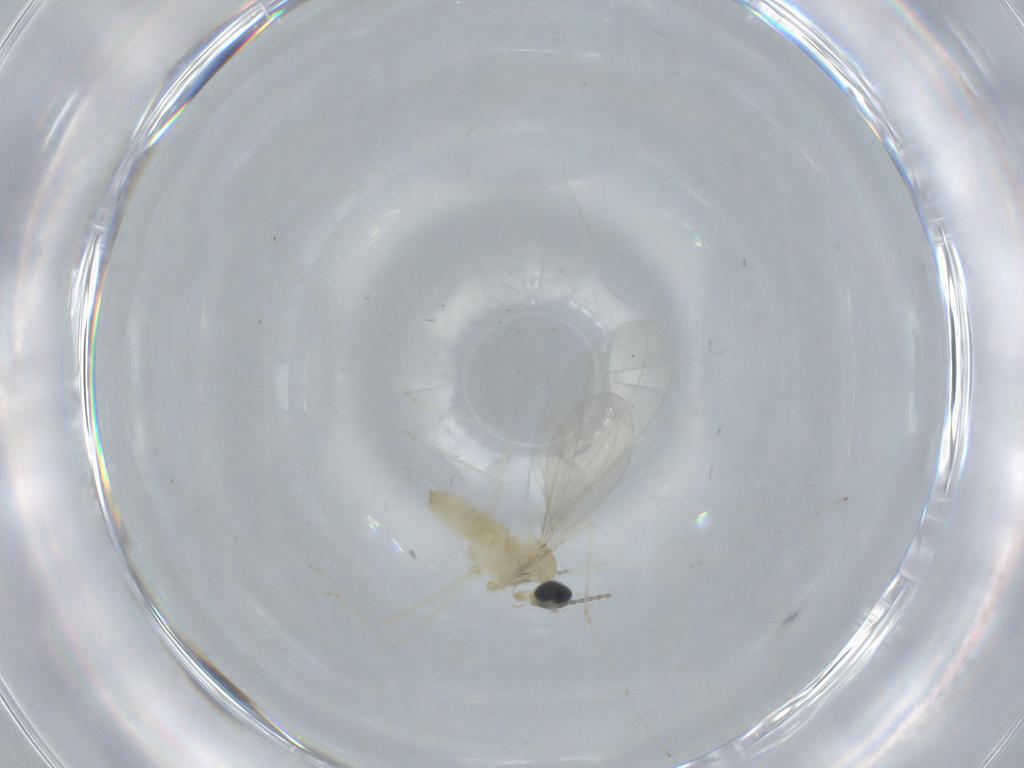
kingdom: Animalia
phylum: Arthropoda
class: Insecta
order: Diptera
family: Cecidomyiidae
